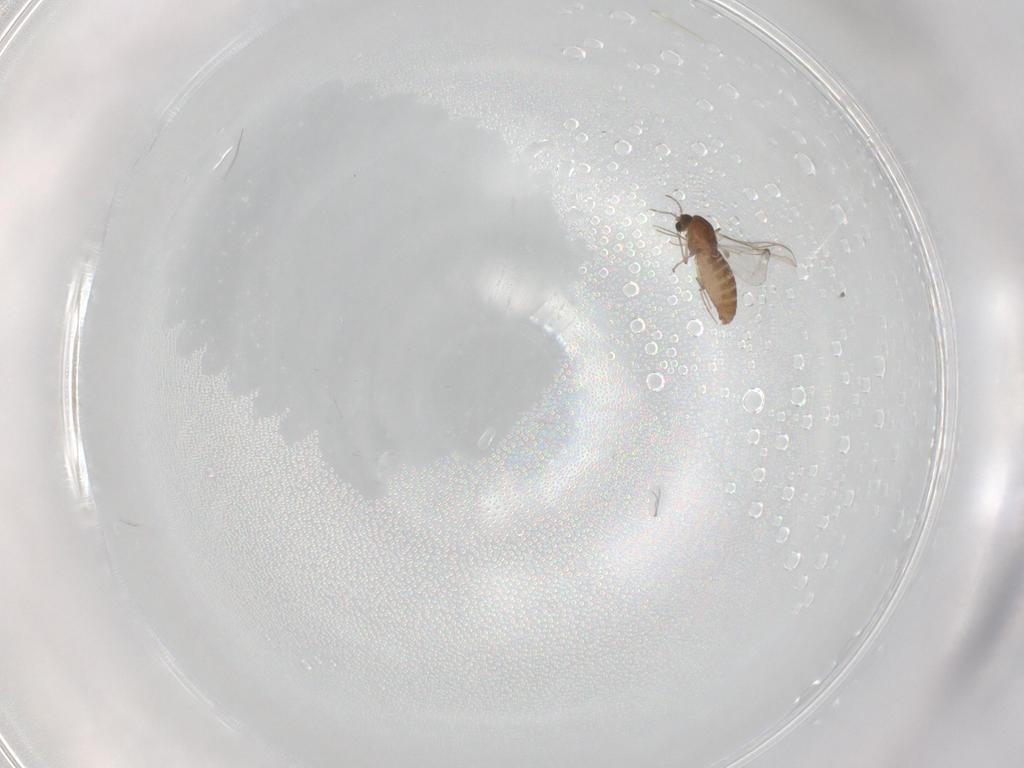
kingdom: Animalia
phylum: Arthropoda
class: Insecta
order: Diptera
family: Chironomidae
